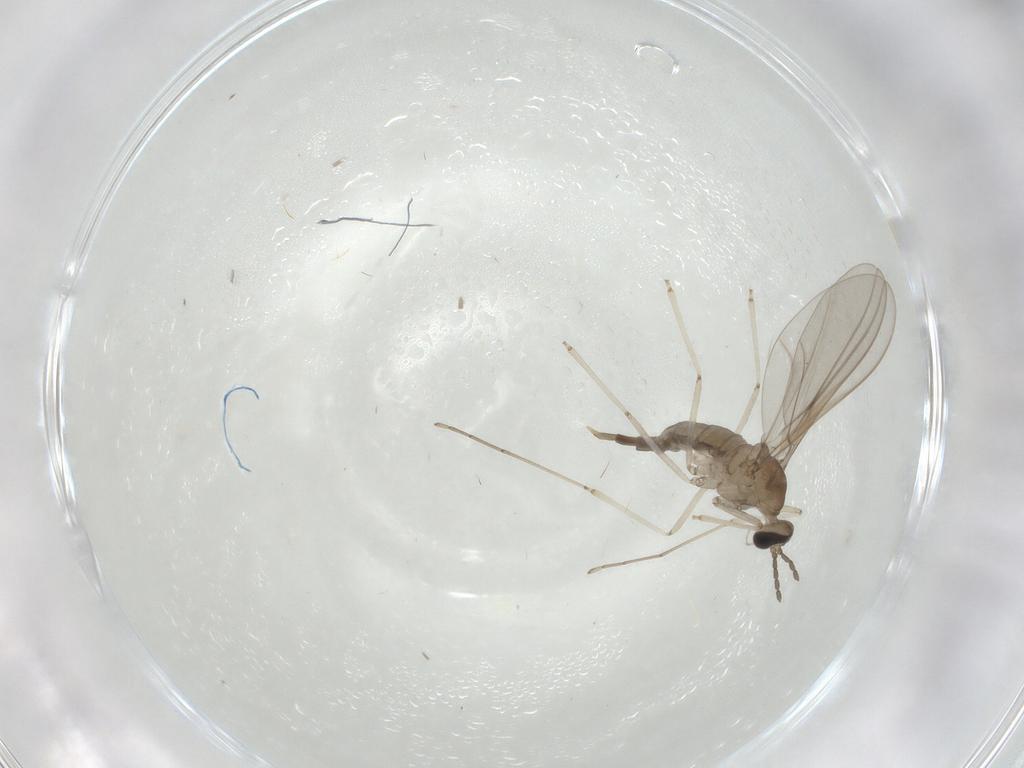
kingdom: Animalia
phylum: Arthropoda
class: Insecta
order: Diptera
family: Cecidomyiidae
